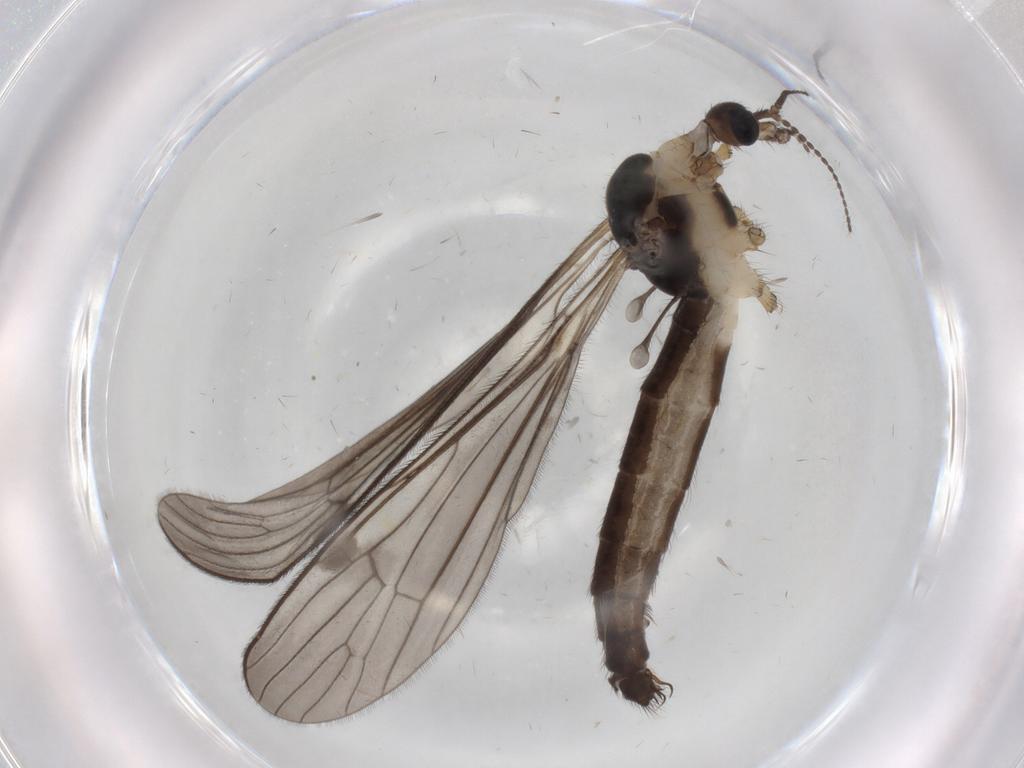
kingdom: Animalia
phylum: Arthropoda
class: Insecta
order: Diptera
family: Limoniidae
